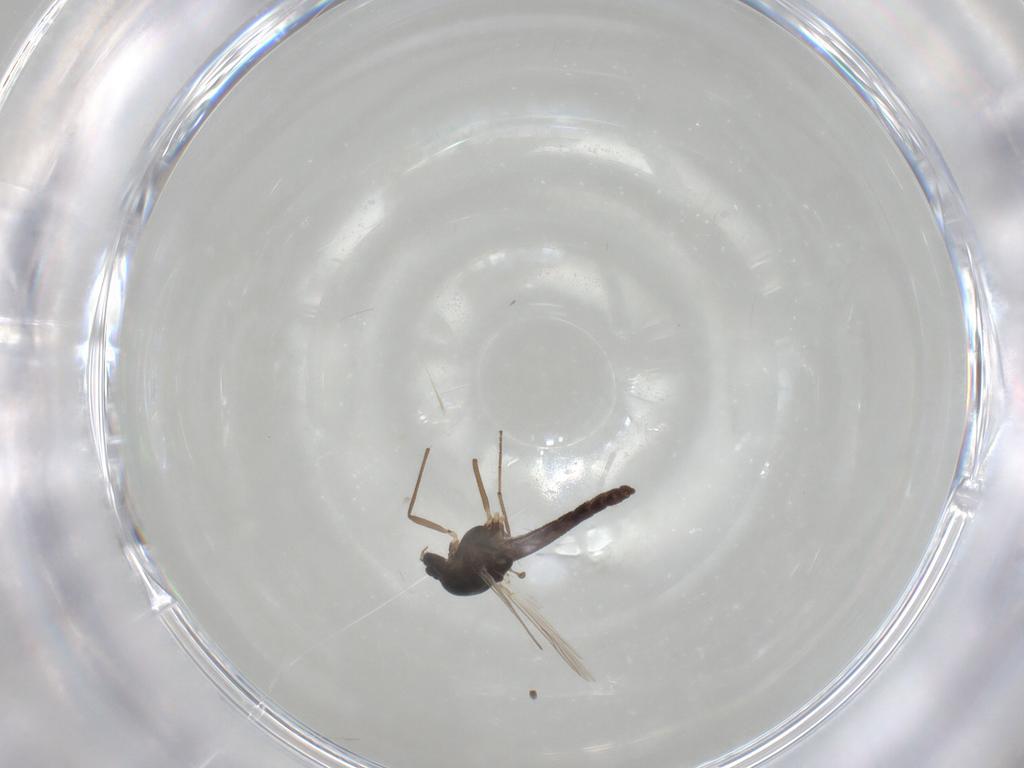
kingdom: Animalia
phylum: Arthropoda
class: Insecta
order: Diptera
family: Chironomidae
